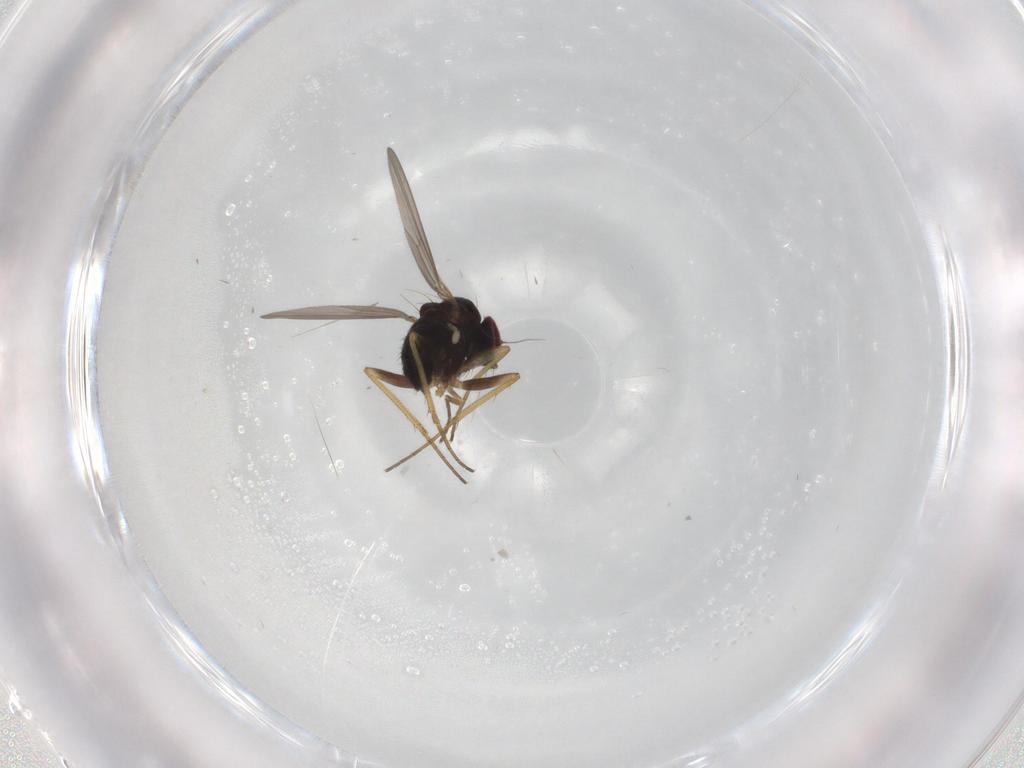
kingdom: Animalia
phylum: Arthropoda
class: Insecta
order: Diptera
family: Dolichopodidae
